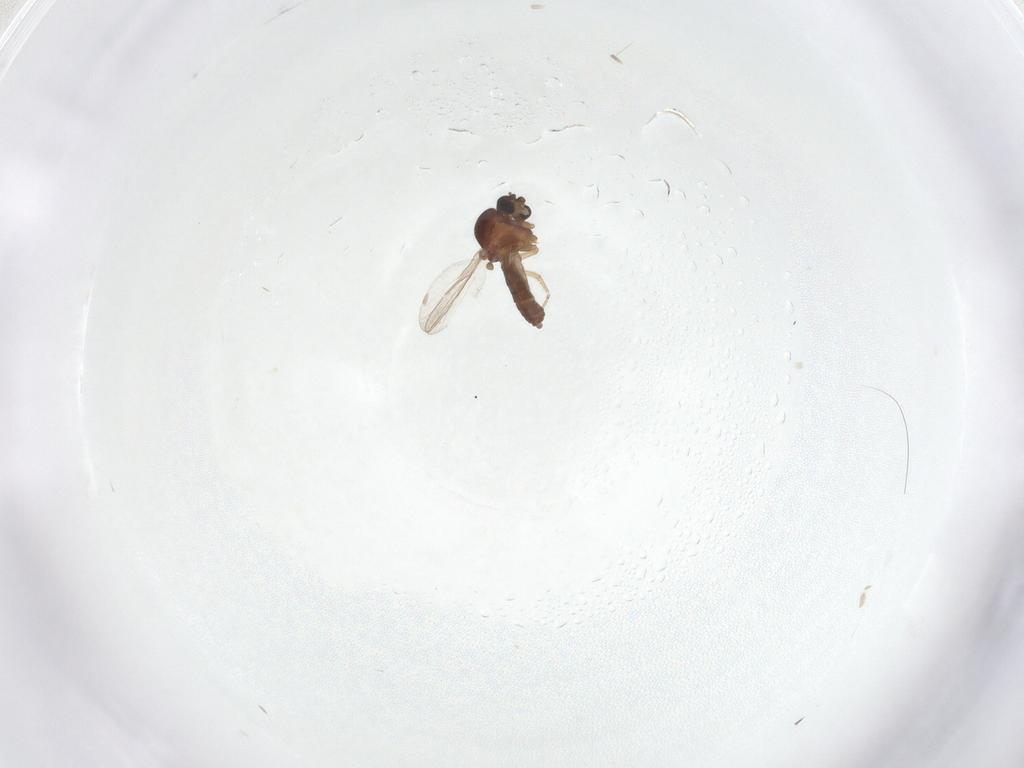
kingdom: Animalia
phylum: Arthropoda
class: Insecta
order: Diptera
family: Ceratopogonidae
